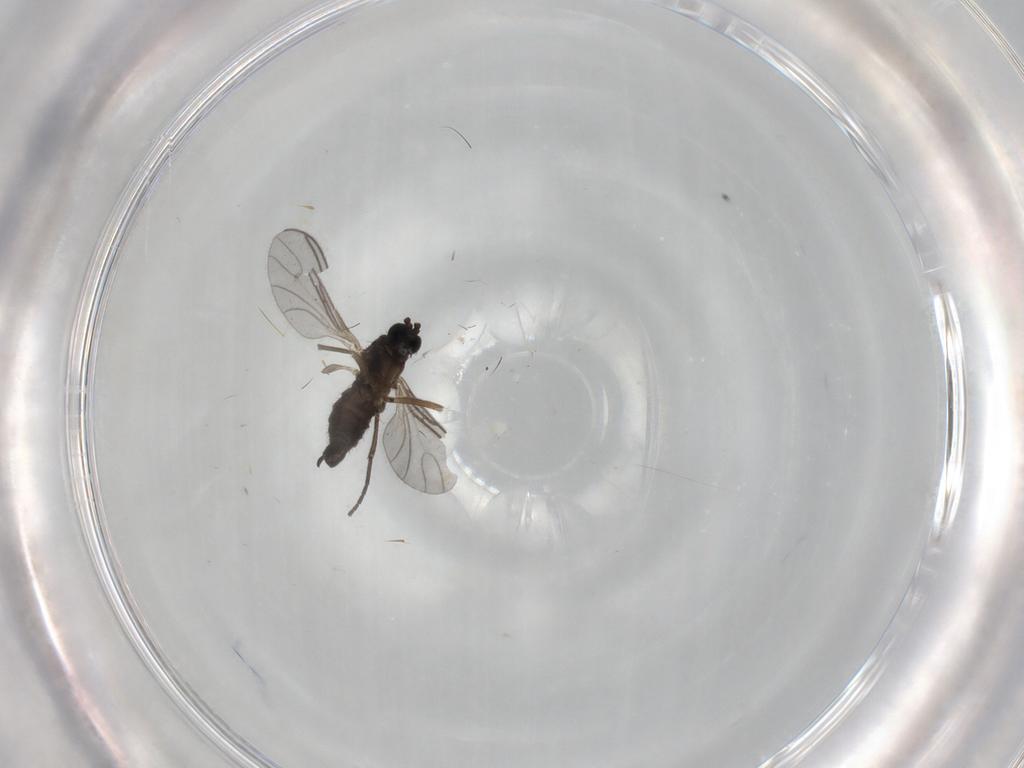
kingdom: Animalia
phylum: Arthropoda
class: Insecta
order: Diptera
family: Sciaridae
